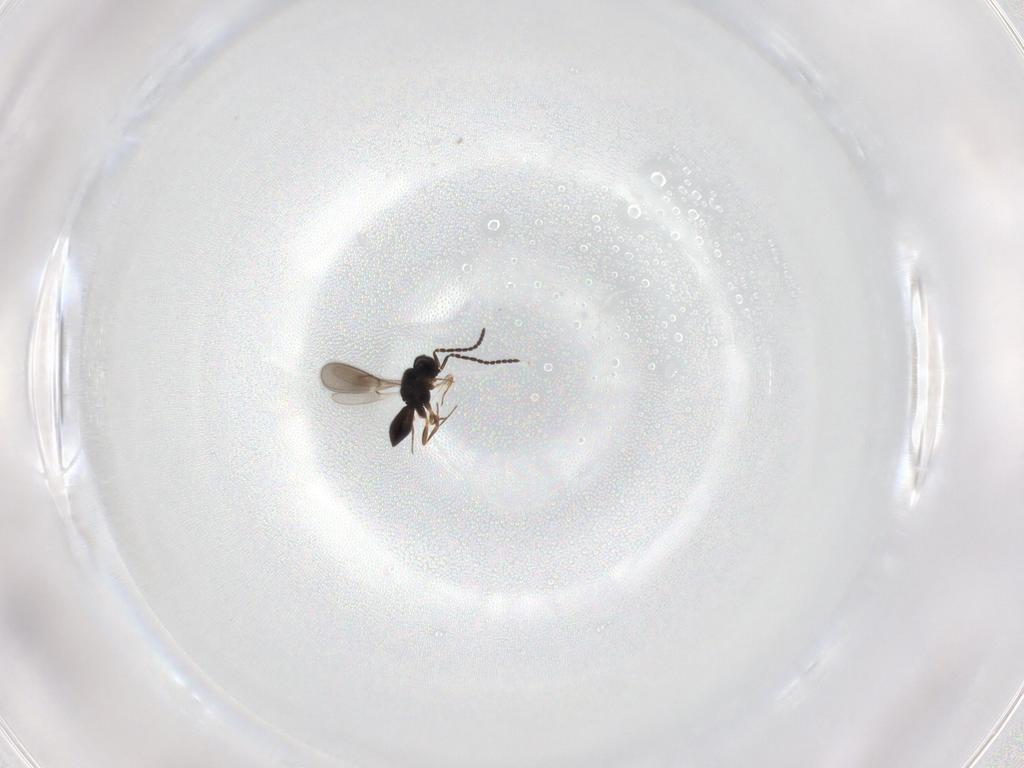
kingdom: Animalia
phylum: Arthropoda
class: Insecta
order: Hymenoptera
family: Scelionidae
